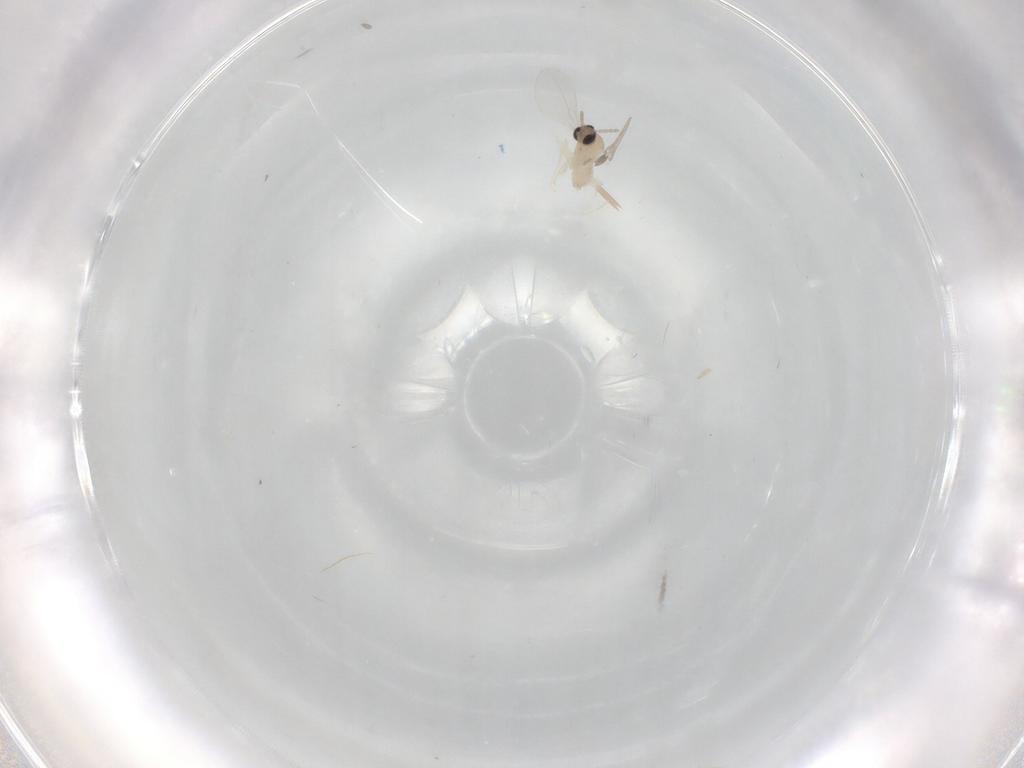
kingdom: Animalia
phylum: Arthropoda
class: Insecta
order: Diptera
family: Cecidomyiidae
